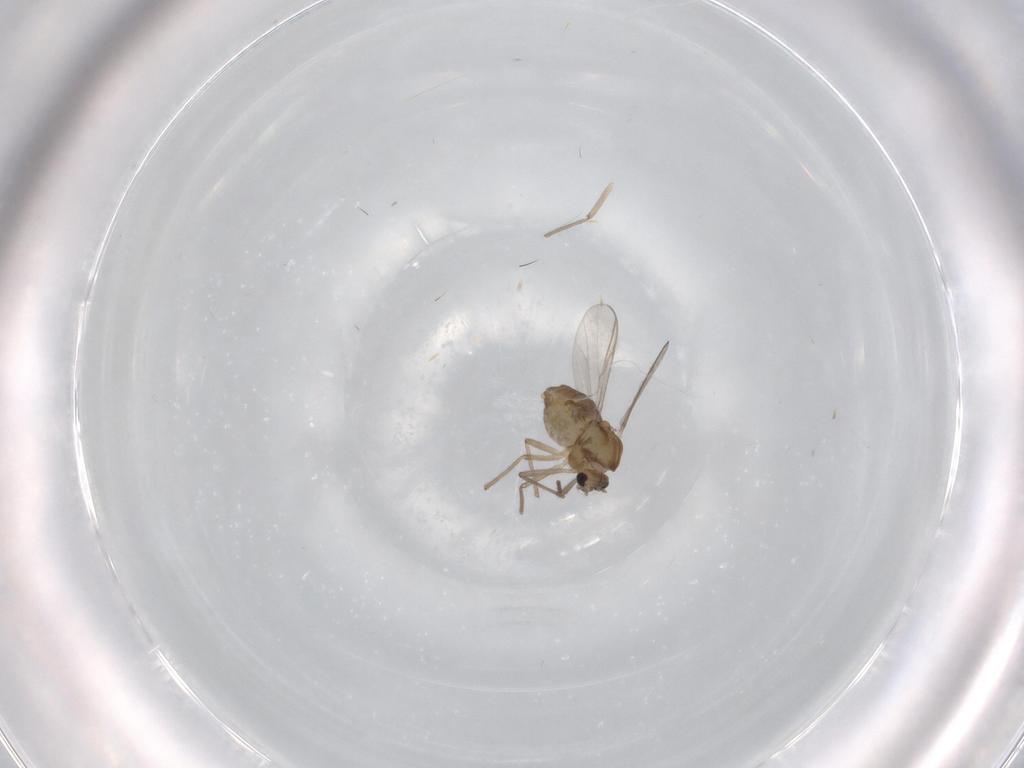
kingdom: Animalia
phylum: Arthropoda
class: Insecta
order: Diptera
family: Chironomidae
